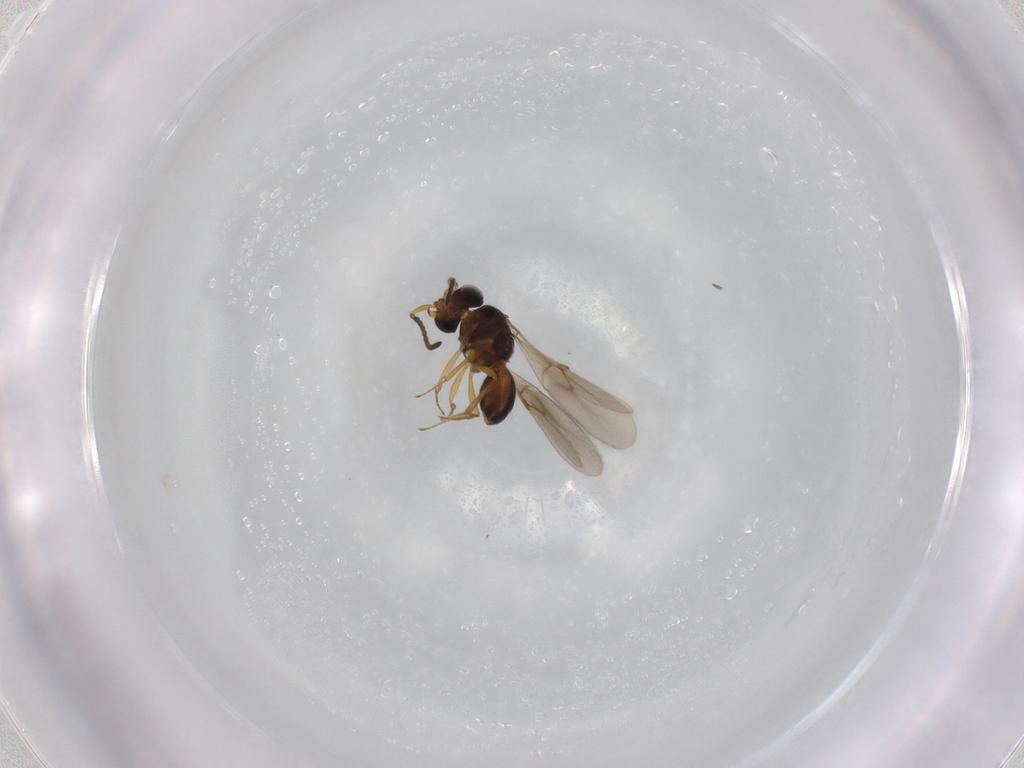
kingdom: Animalia
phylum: Arthropoda
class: Insecta
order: Hymenoptera
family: Scelionidae
